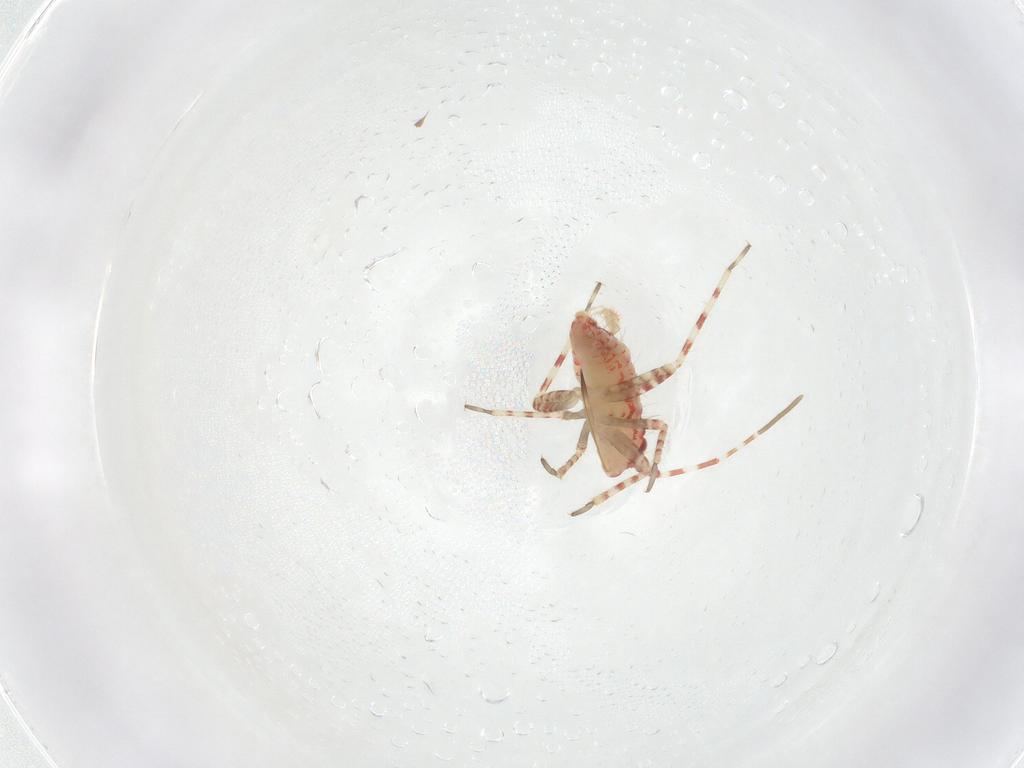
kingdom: Animalia
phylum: Arthropoda
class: Insecta
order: Hemiptera
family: Miridae
